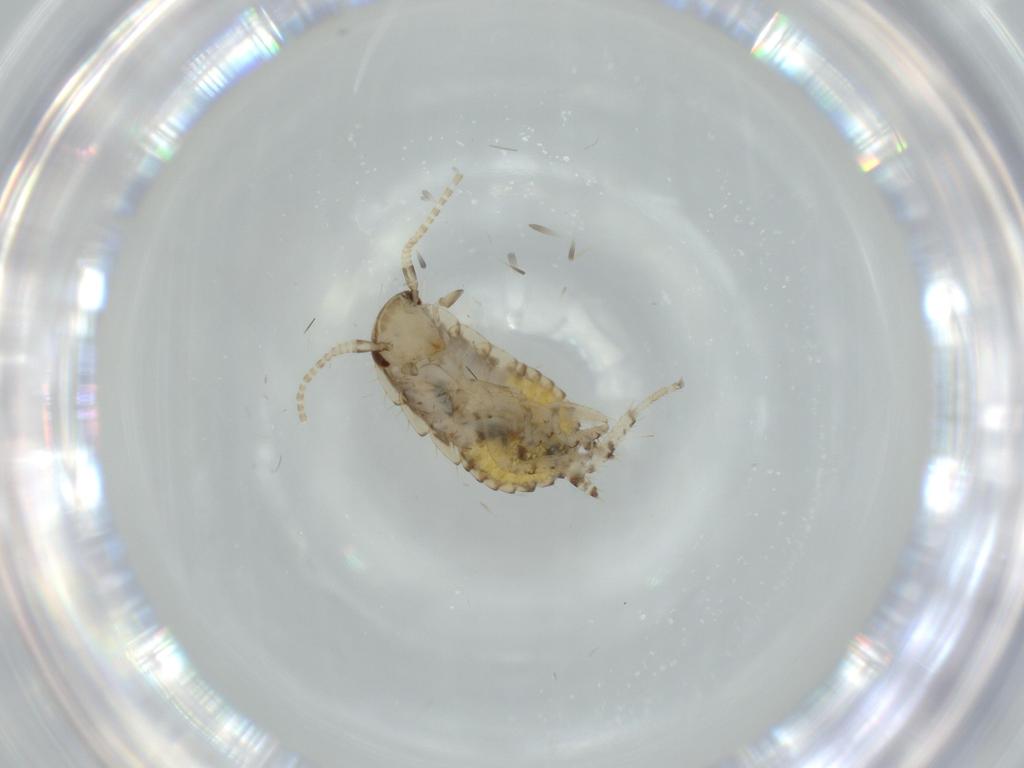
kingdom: Animalia
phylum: Arthropoda
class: Insecta
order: Blattodea
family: Ectobiidae
